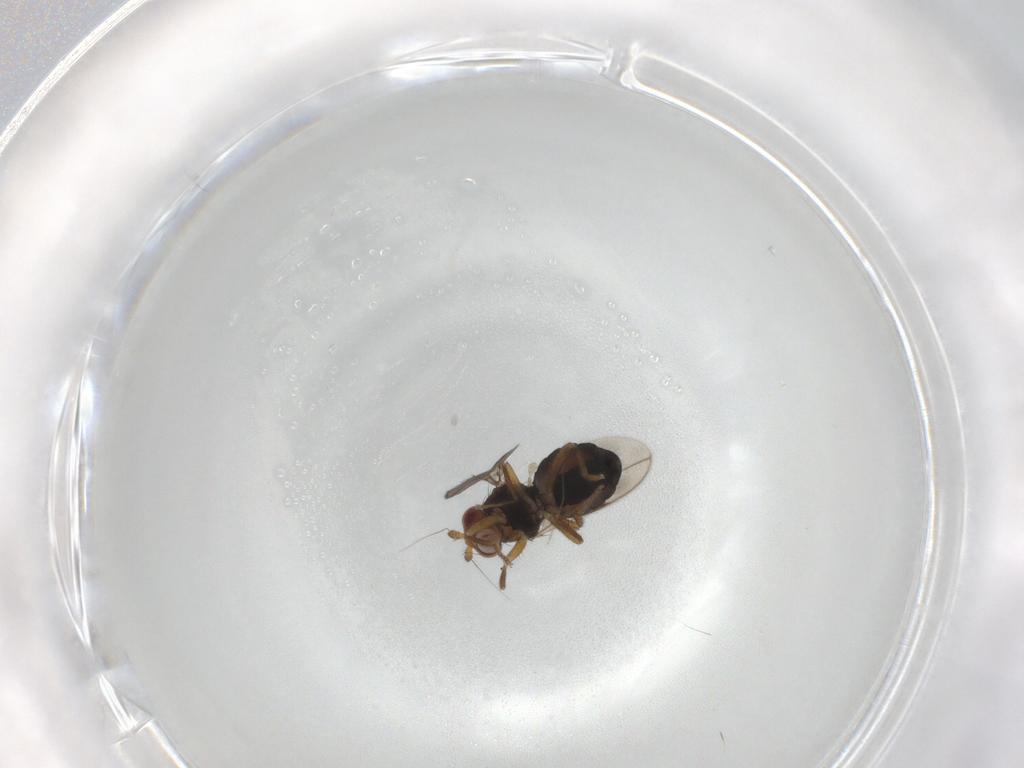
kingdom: Animalia
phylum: Arthropoda
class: Insecta
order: Diptera
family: Sphaeroceridae
